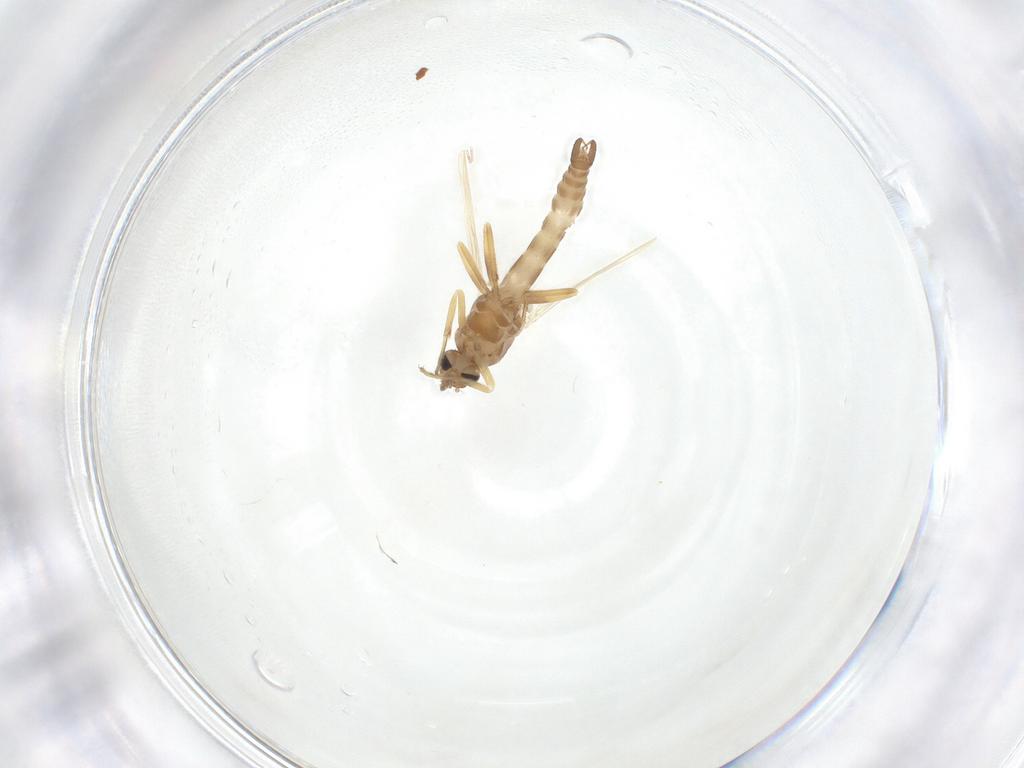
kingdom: Animalia
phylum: Arthropoda
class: Insecta
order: Diptera
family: Ceratopogonidae
